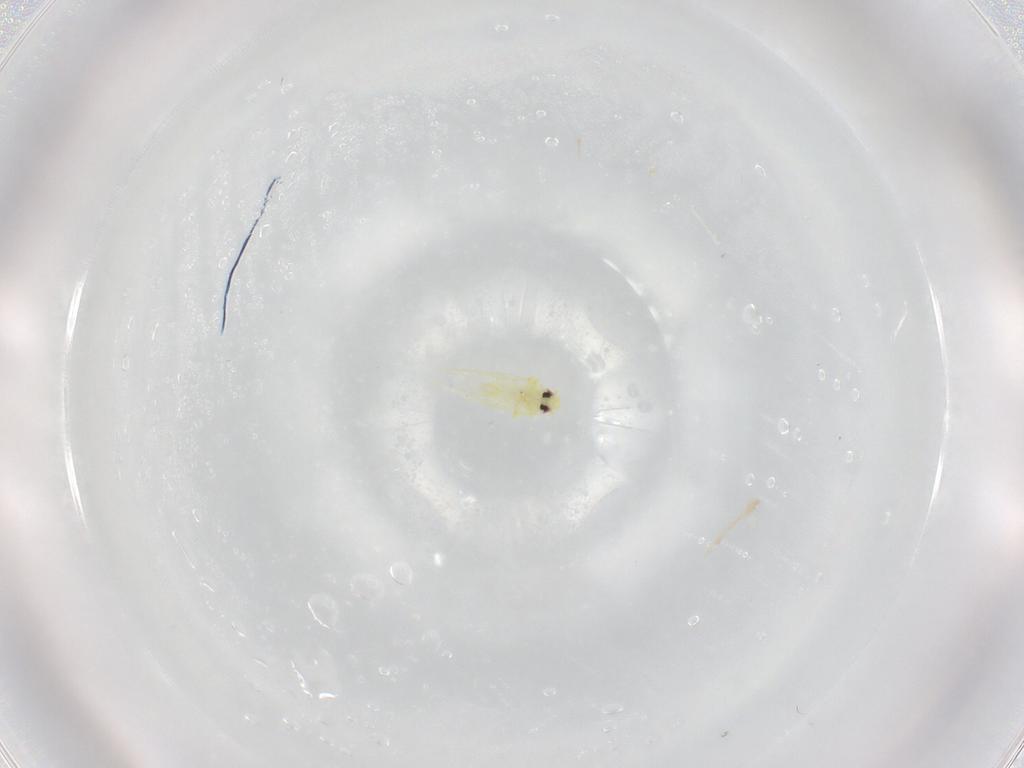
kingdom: Animalia
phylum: Arthropoda
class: Insecta
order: Hemiptera
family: Aleyrodidae
